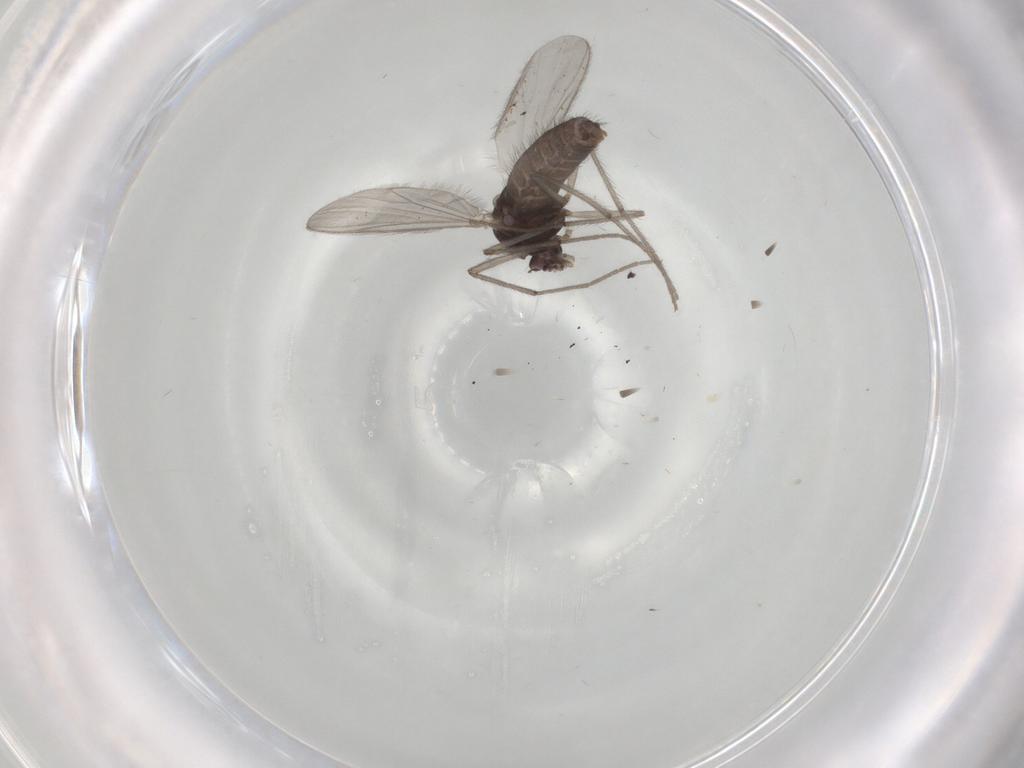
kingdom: Animalia
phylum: Arthropoda
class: Insecta
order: Diptera
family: Chironomidae
